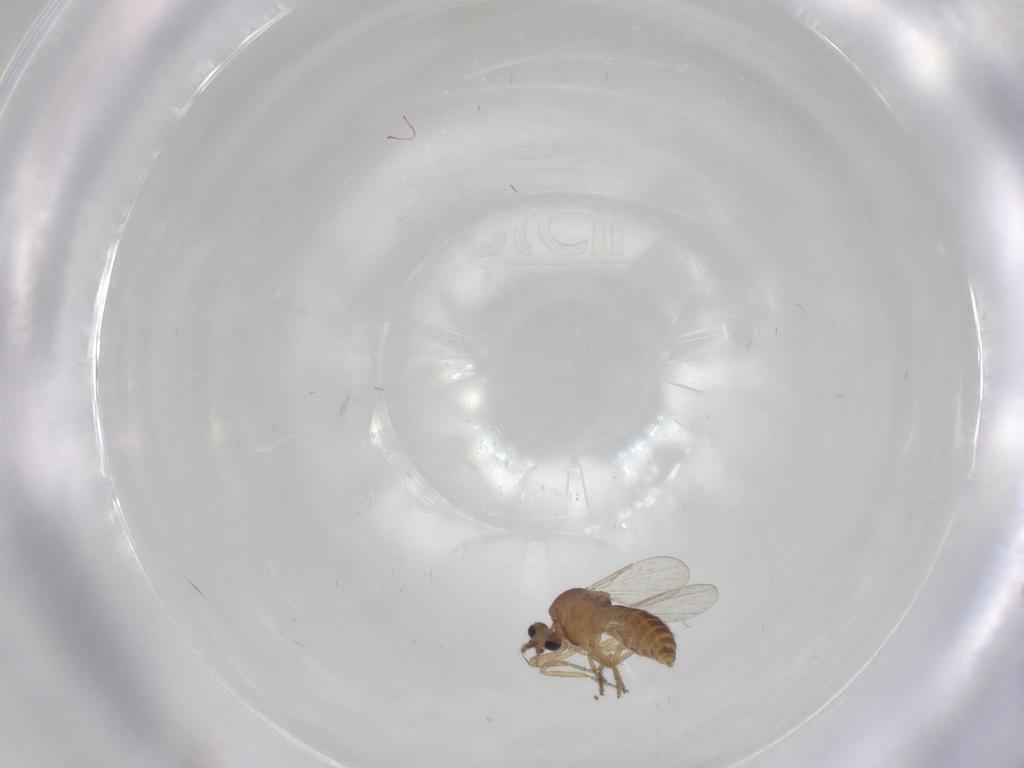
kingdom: Animalia
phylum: Arthropoda
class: Insecta
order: Diptera
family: Ceratopogonidae
